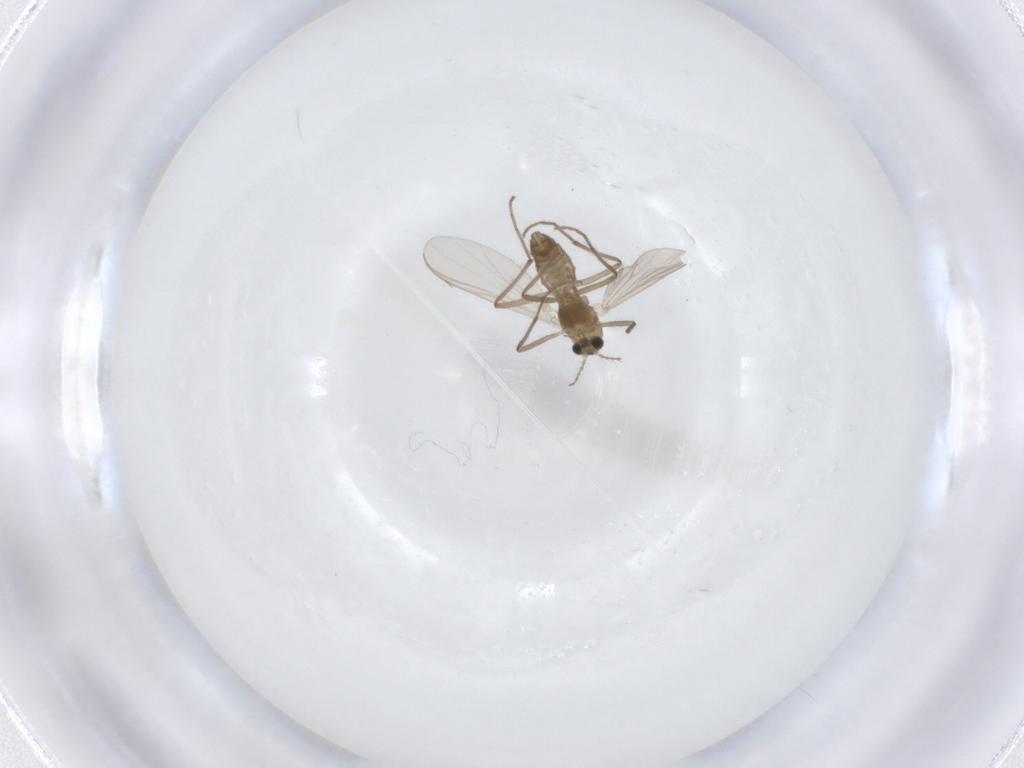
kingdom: Animalia
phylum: Arthropoda
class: Insecta
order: Diptera
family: Chironomidae
